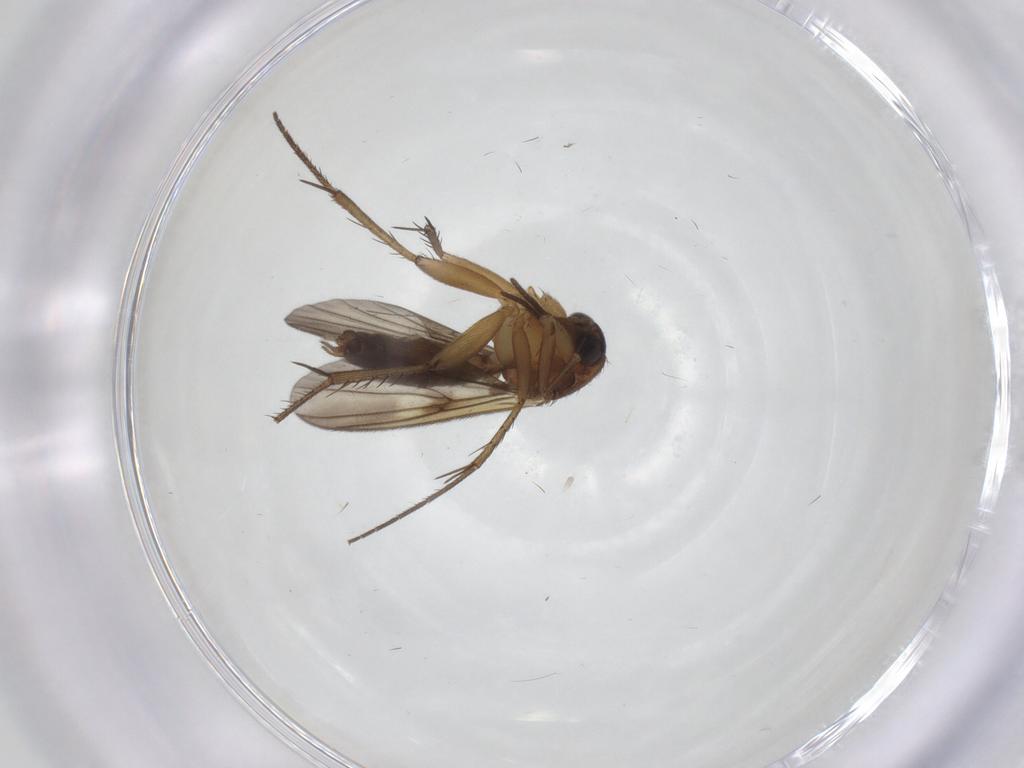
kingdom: Animalia
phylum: Arthropoda
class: Insecta
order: Diptera
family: Mycetophilidae
